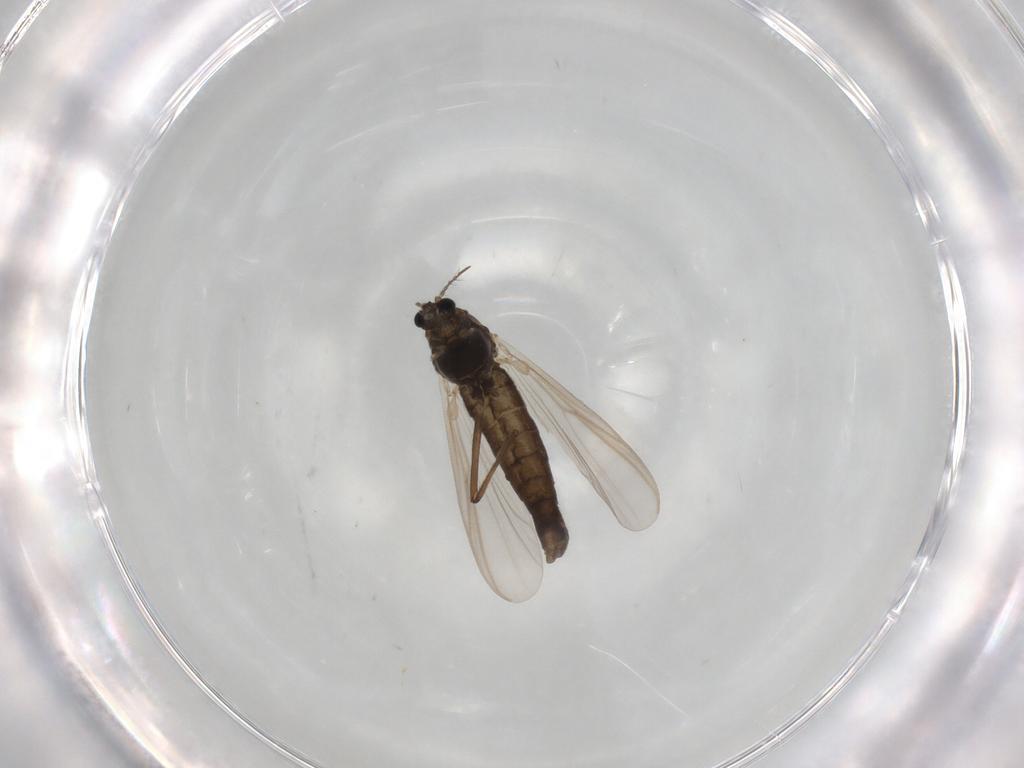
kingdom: Animalia
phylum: Arthropoda
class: Insecta
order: Diptera
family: Chironomidae
